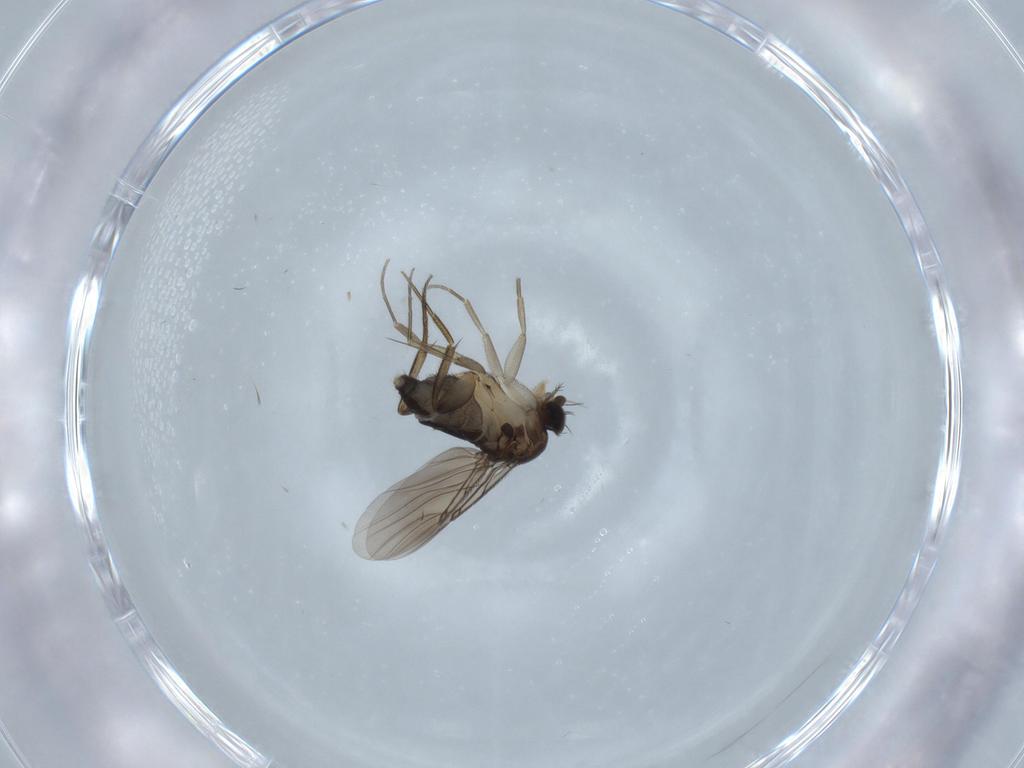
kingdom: Animalia
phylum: Arthropoda
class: Insecta
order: Diptera
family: Phoridae
